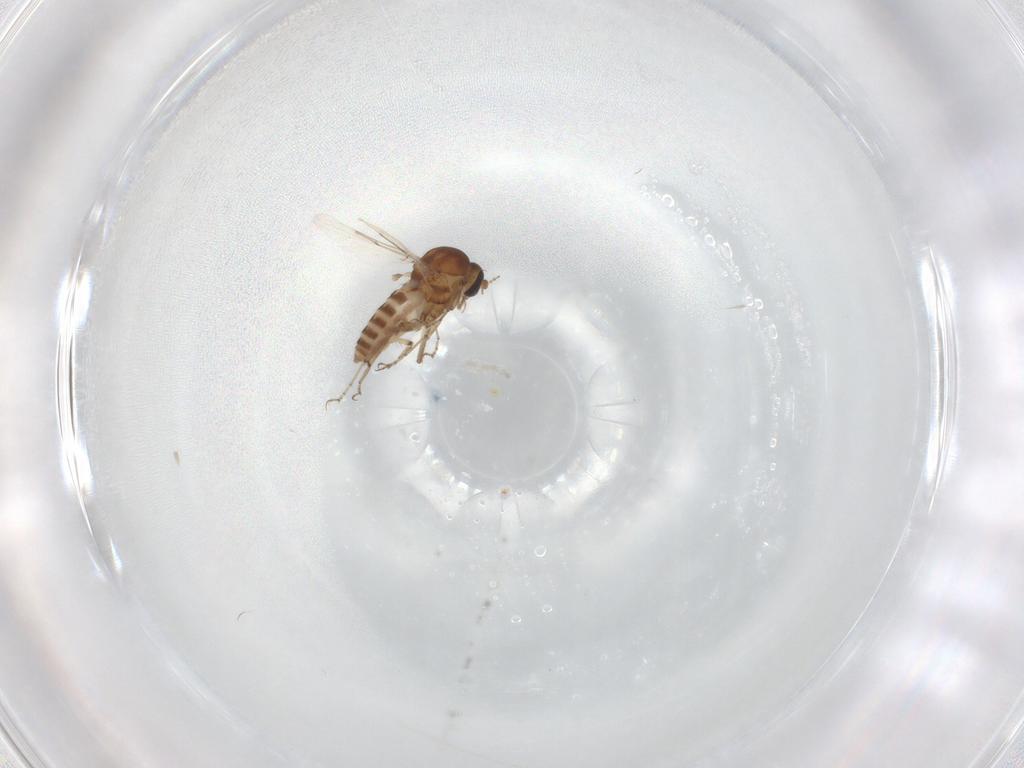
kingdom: Animalia
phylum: Arthropoda
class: Insecta
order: Diptera
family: Ceratopogonidae
